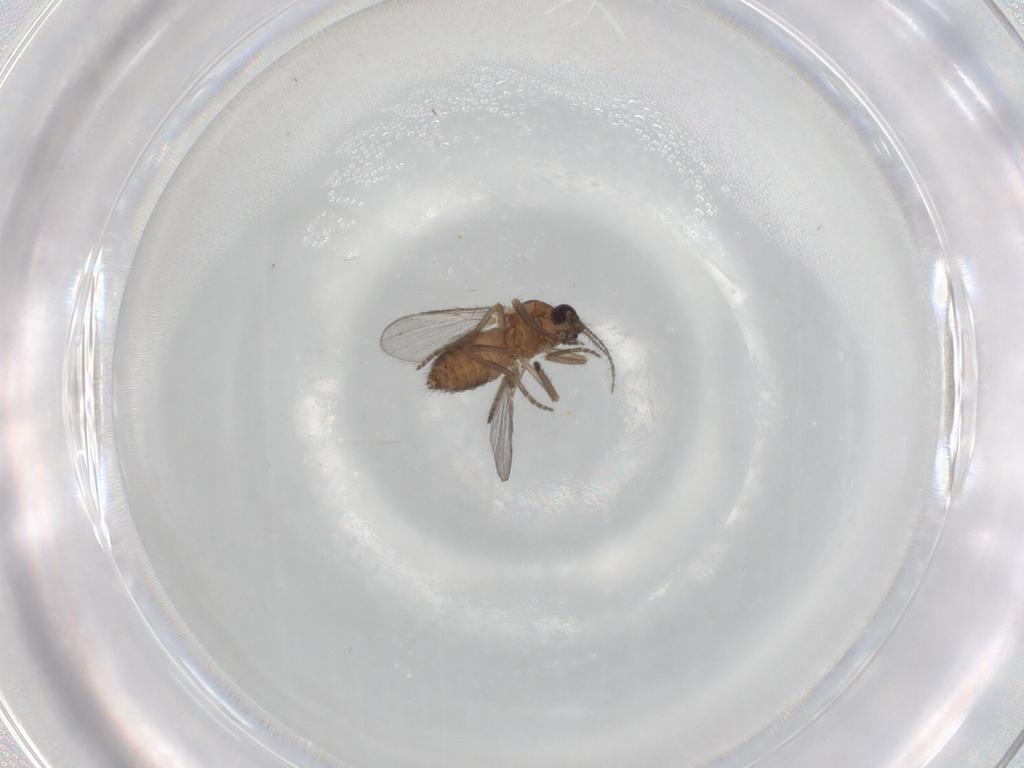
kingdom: Animalia
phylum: Arthropoda
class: Insecta
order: Diptera
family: Ceratopogonidae
